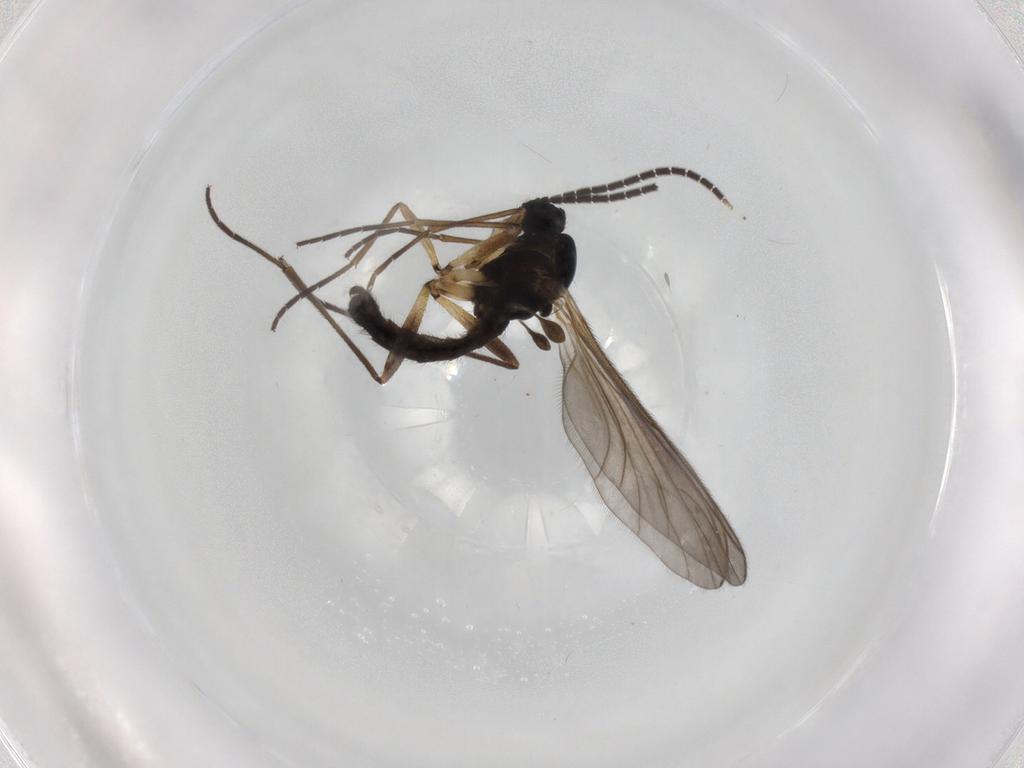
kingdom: Animalia
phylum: Arthropoda
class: Insecta
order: Diptera
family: Sciaridae
